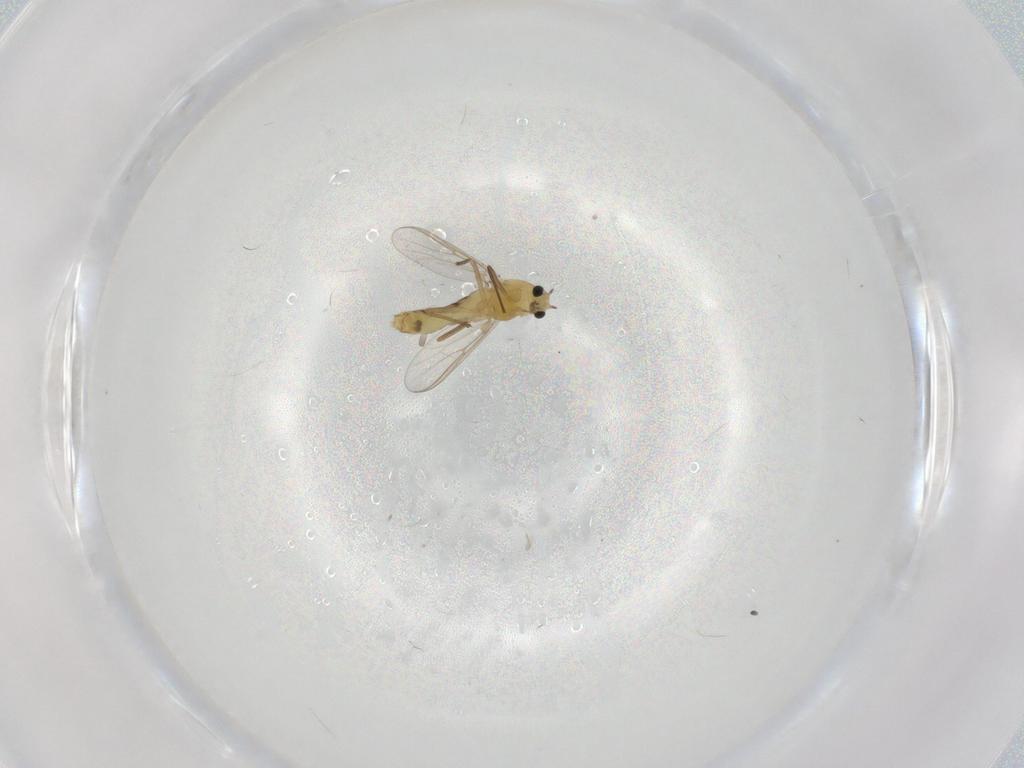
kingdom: Animalia
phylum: Arthropoda
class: Insecta
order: Diptera
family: Chironomidae
